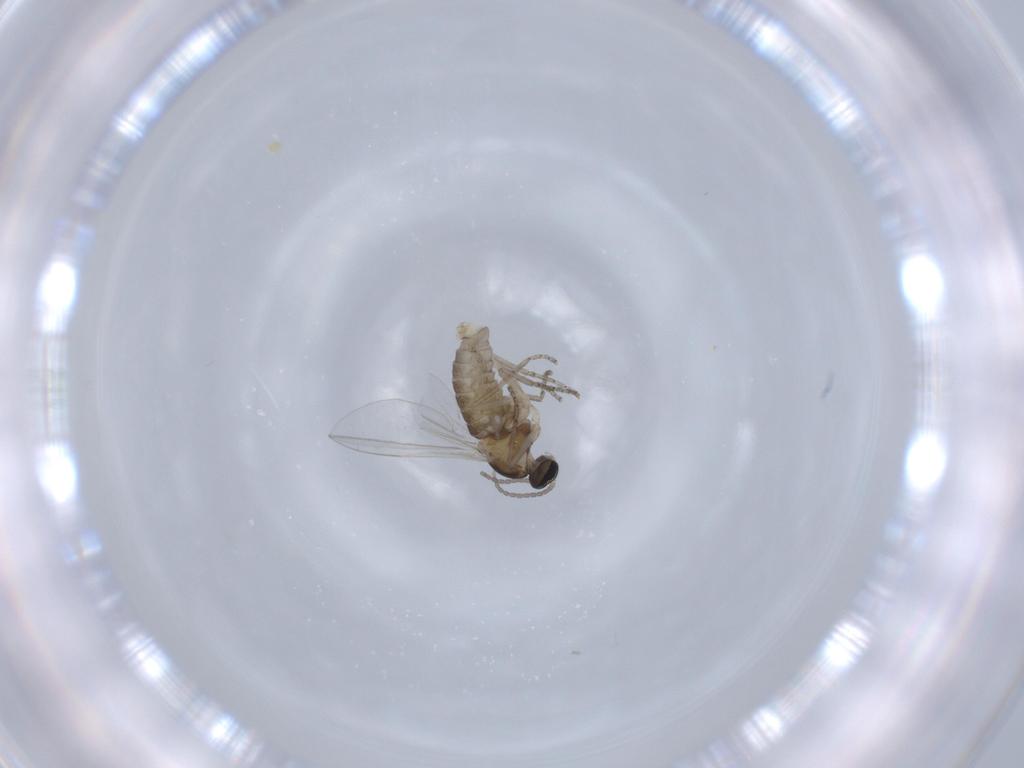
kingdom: Animalia
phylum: Arthropoda
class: Insecta
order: Diptera
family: Cecidomyiidae
